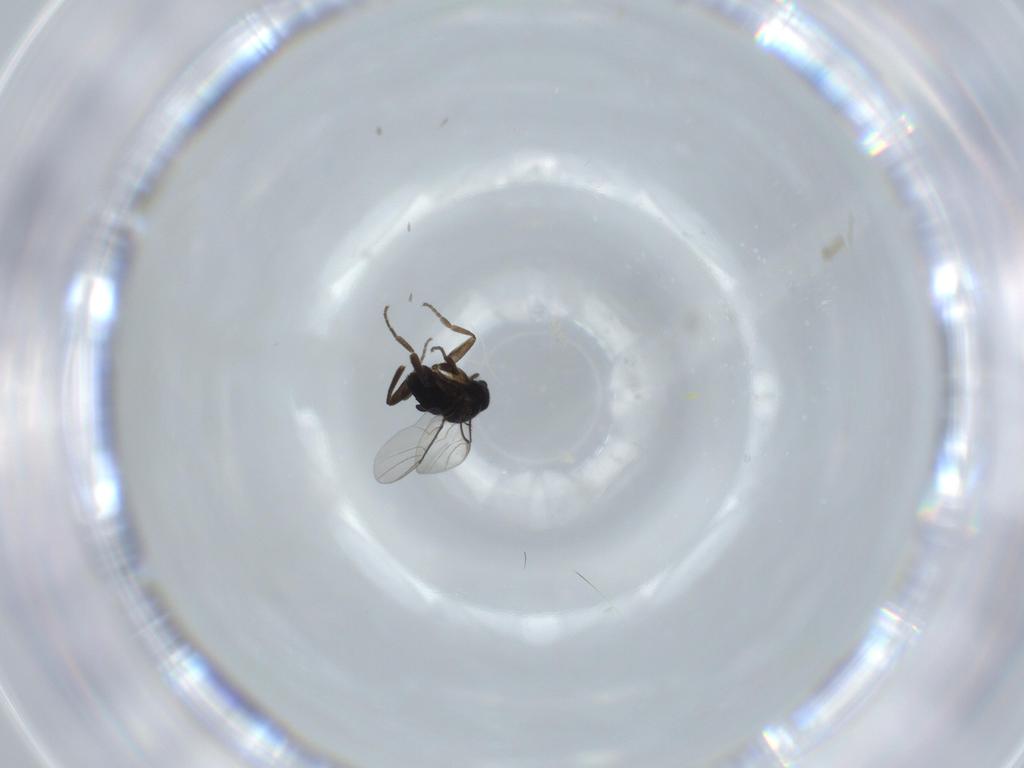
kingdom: Animalia
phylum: Arthropoda
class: Insecta
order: Diptera
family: Phoridae
